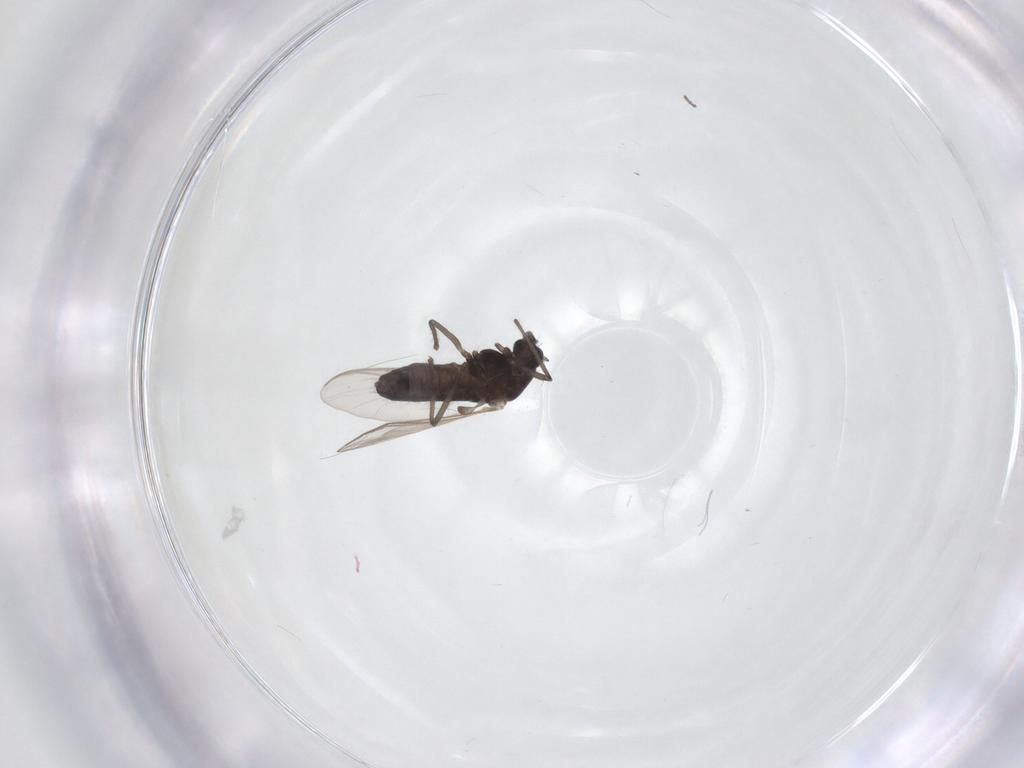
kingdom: Animalia
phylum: Arthropoda
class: Insecta
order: Diptera
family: Chironomidae
